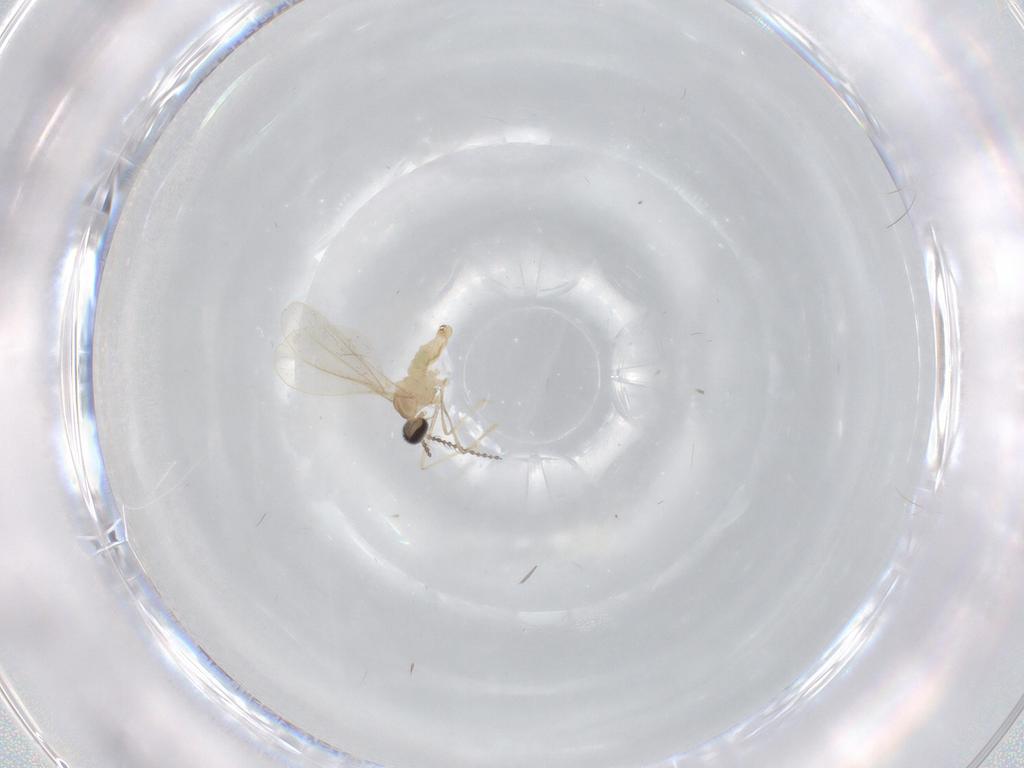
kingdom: Animalia
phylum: Arthropoda
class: Insecta
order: Diptera
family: Cecidomyiidae
